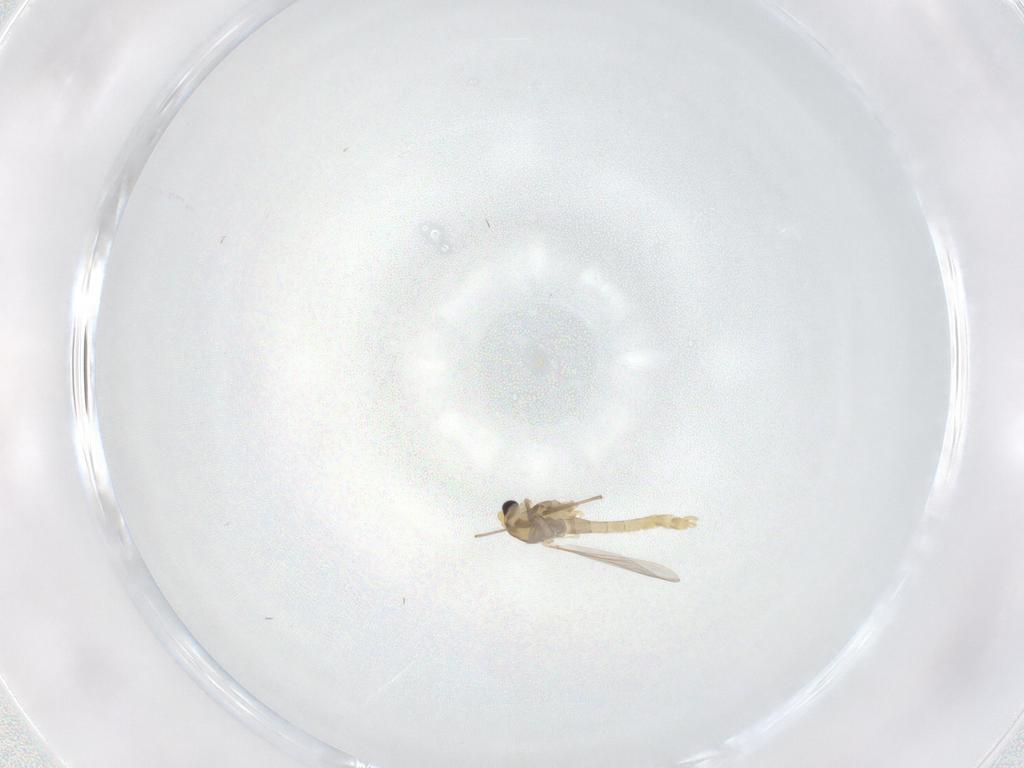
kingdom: Animalia
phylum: Arthropoda
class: Insecta
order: Diptera
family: Chironomidae
